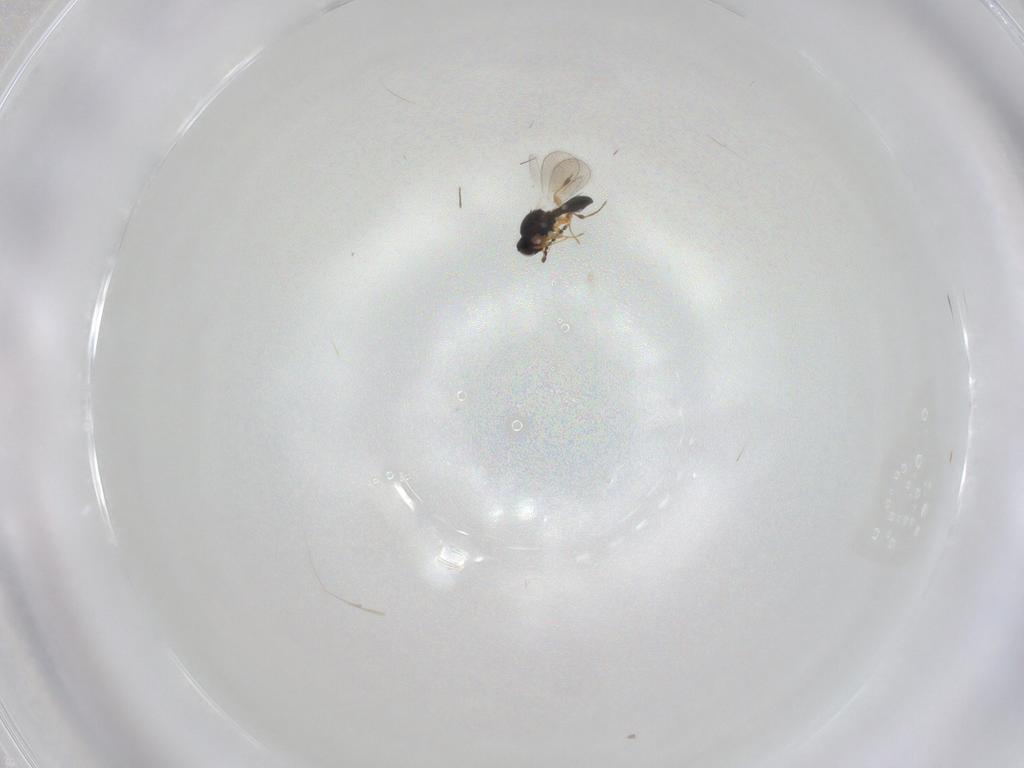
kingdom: Animalia
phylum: Arthropoda
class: Insecta
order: Hymenoptera
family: Platygastridae
